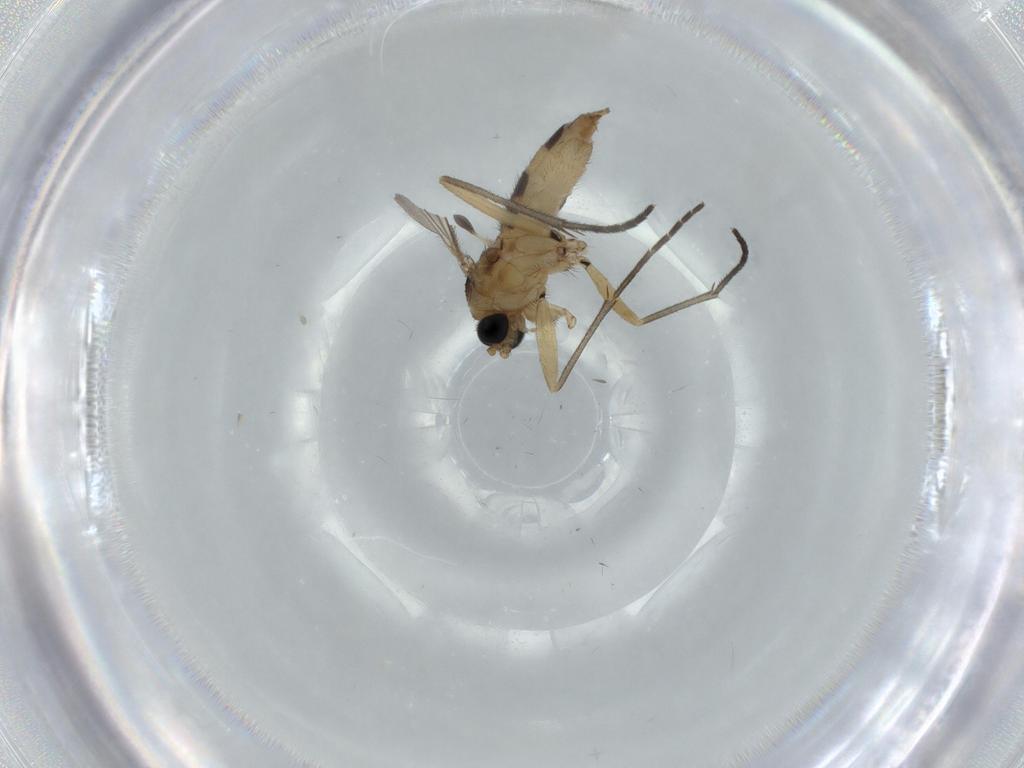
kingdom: Animalia
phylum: Arthropoda
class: Insecta
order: Diptera
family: Sciaridae
